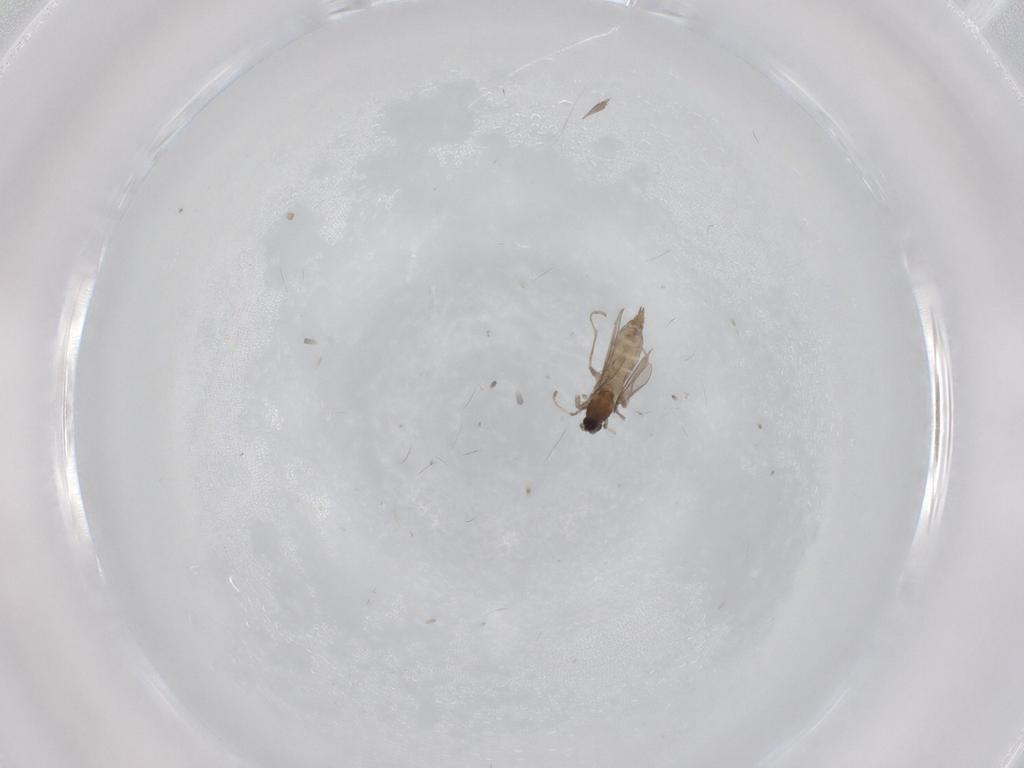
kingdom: Animalia
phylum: Arthropoda
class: Insecta
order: Diptera
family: Cecidomyiidae
